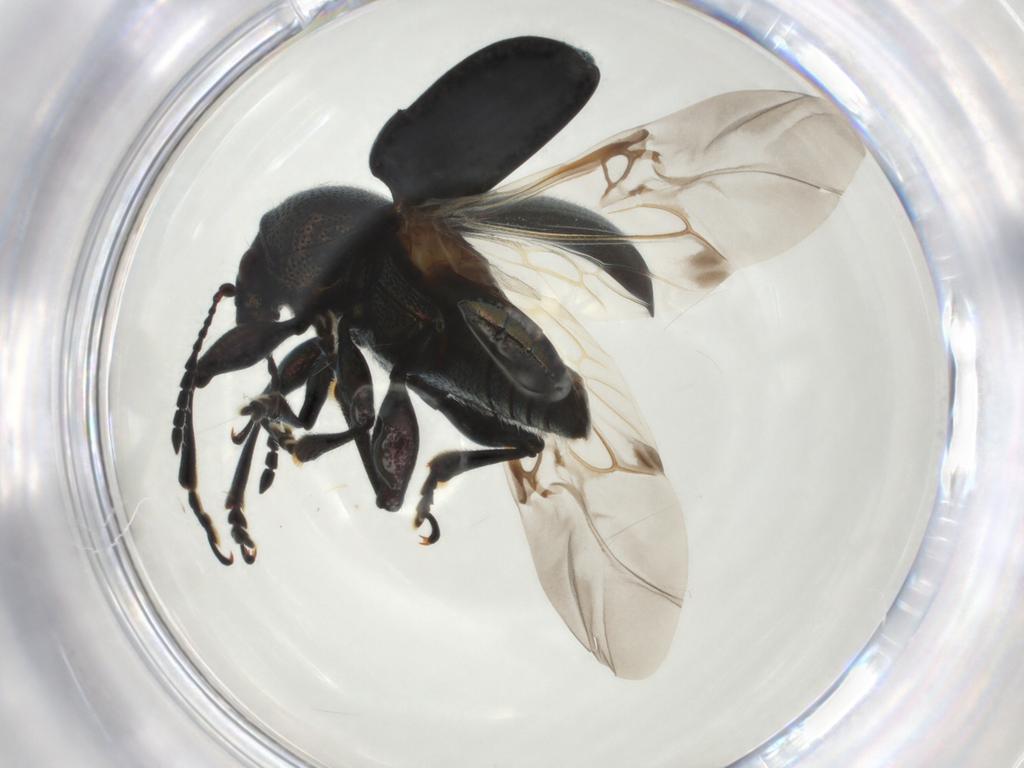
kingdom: Animalia
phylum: Arthropoda
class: Insecta
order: Coleoptera
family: Chrysomelidae
